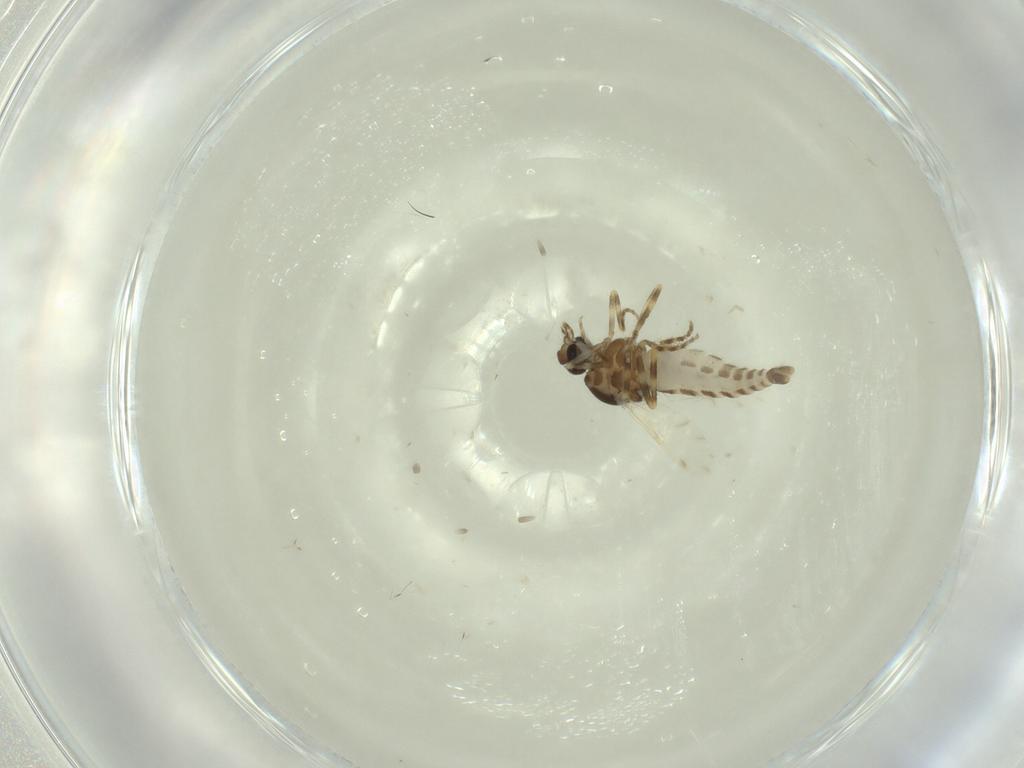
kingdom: Animalia
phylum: Arthropoda
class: Insecta
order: Diptera
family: Ceratopogonidae
